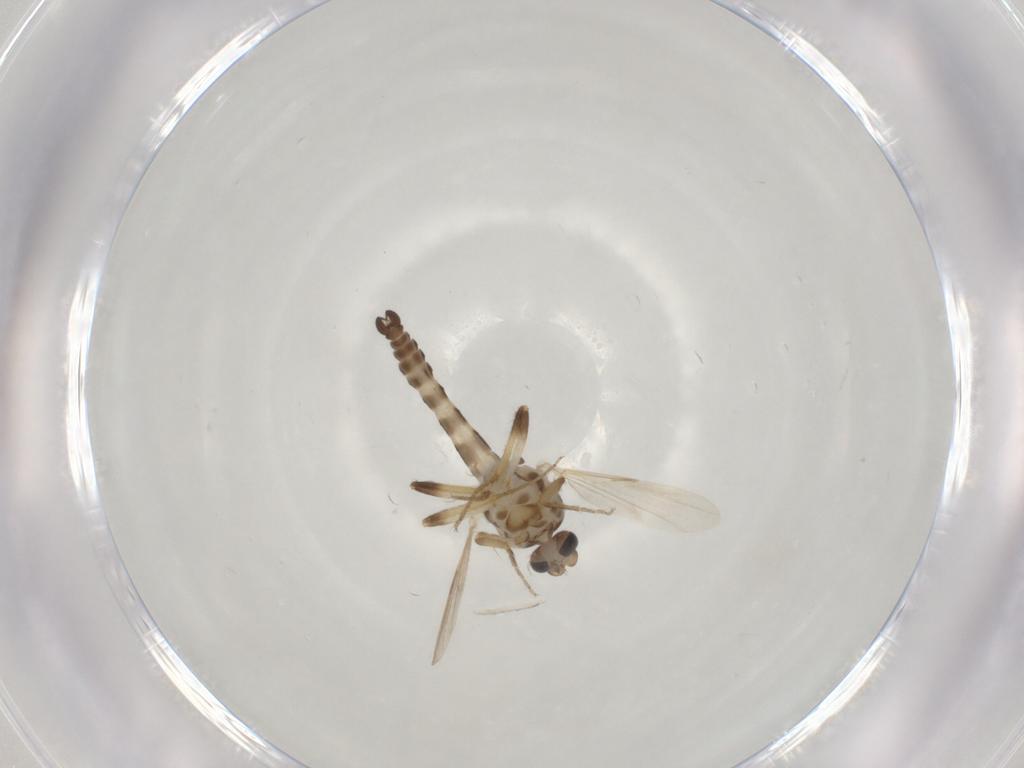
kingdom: Animalia
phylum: Arthropoda
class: Insecta
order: Diptera
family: Ceratopogonidae
